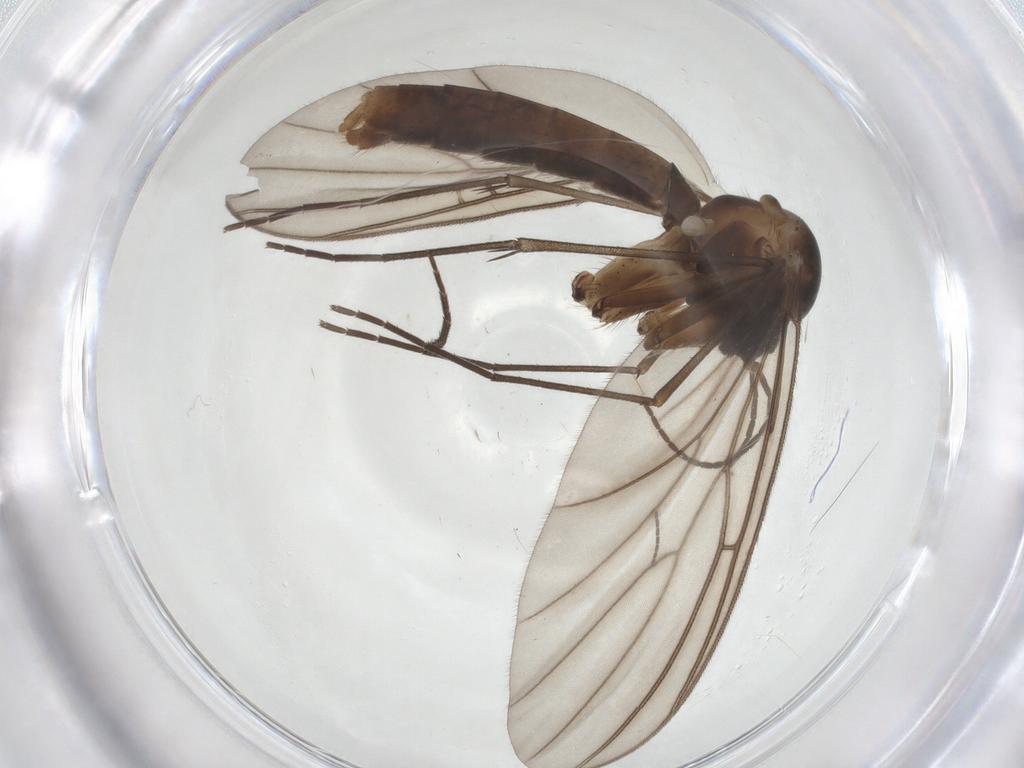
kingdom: Animalia
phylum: Arthropoda
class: Insecta
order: Diptera
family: Chironomidae
